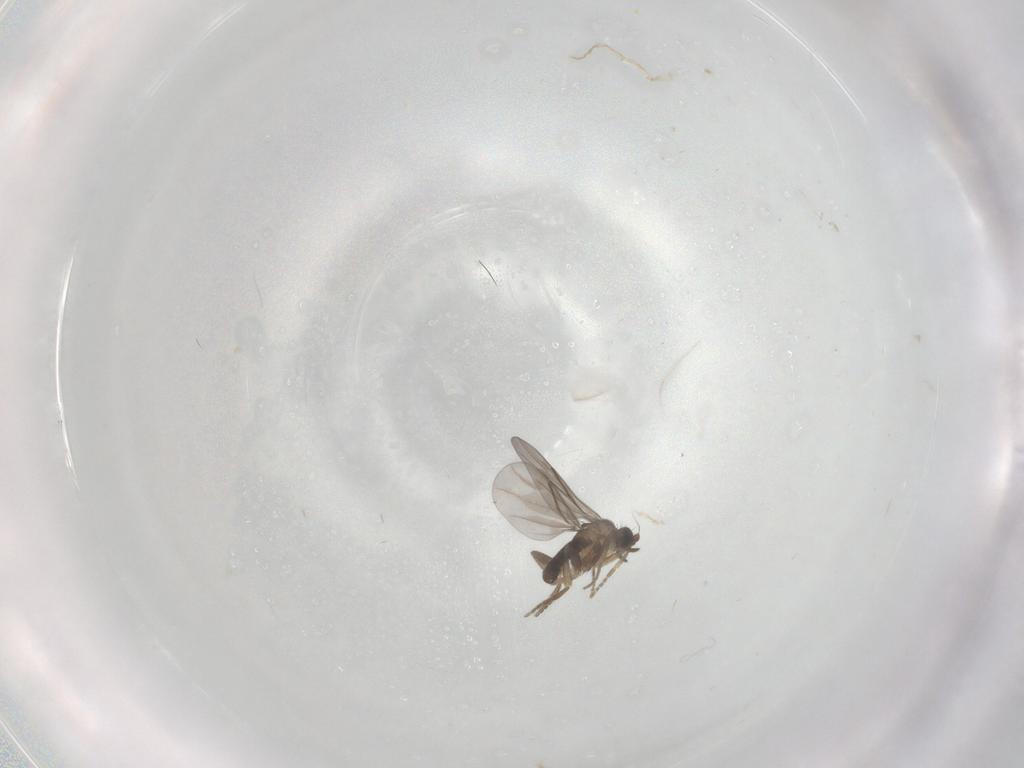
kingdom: Animalia
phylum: Arthropoda
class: Insecta
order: Diptera
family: Phoridae
